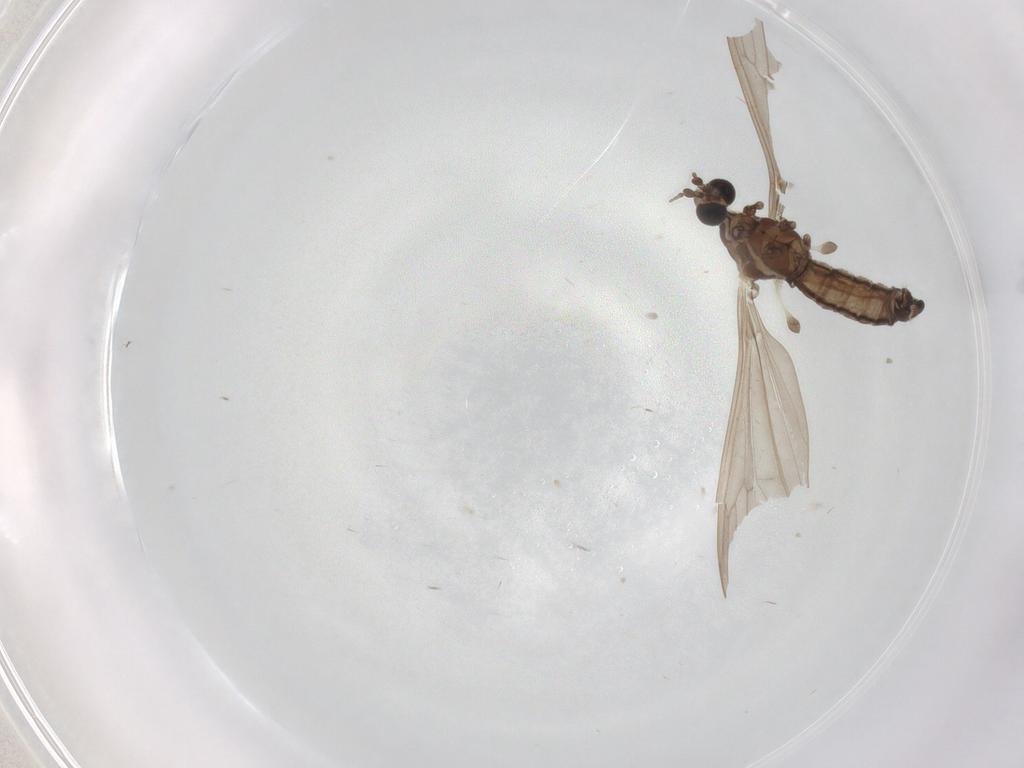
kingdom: Animalia
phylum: Arthropoda
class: Insecta
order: Diptera
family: Limoniidae
